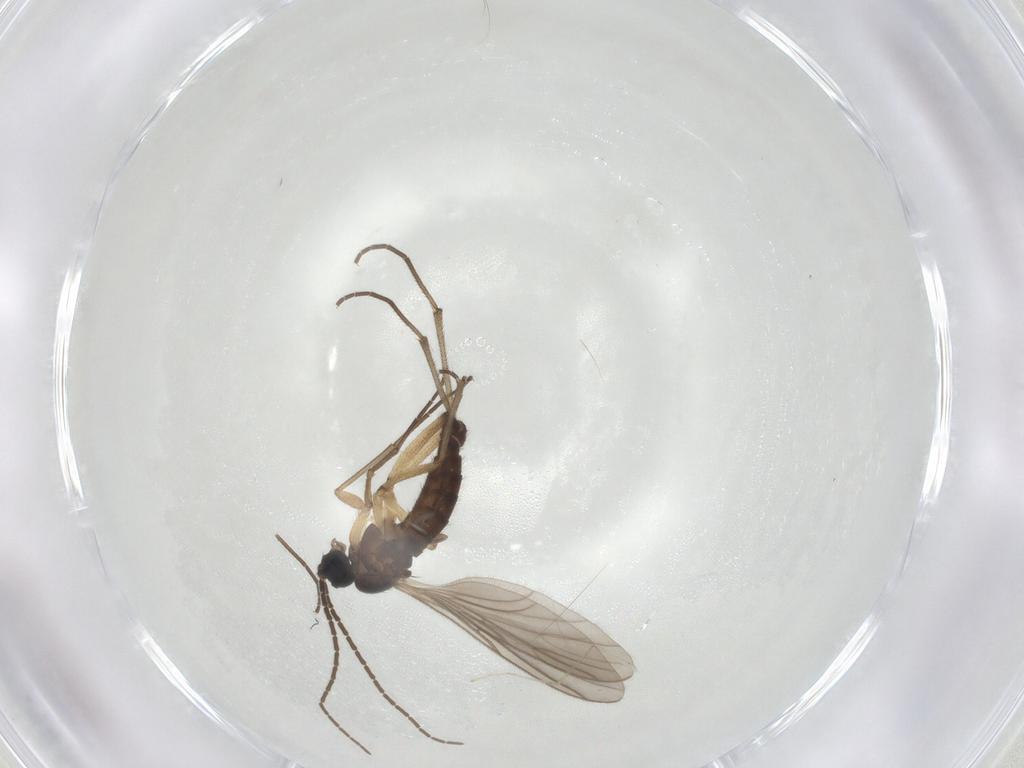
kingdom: Animalia
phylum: Arthropoda
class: Insecta
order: Diptera
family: Sciaridae
